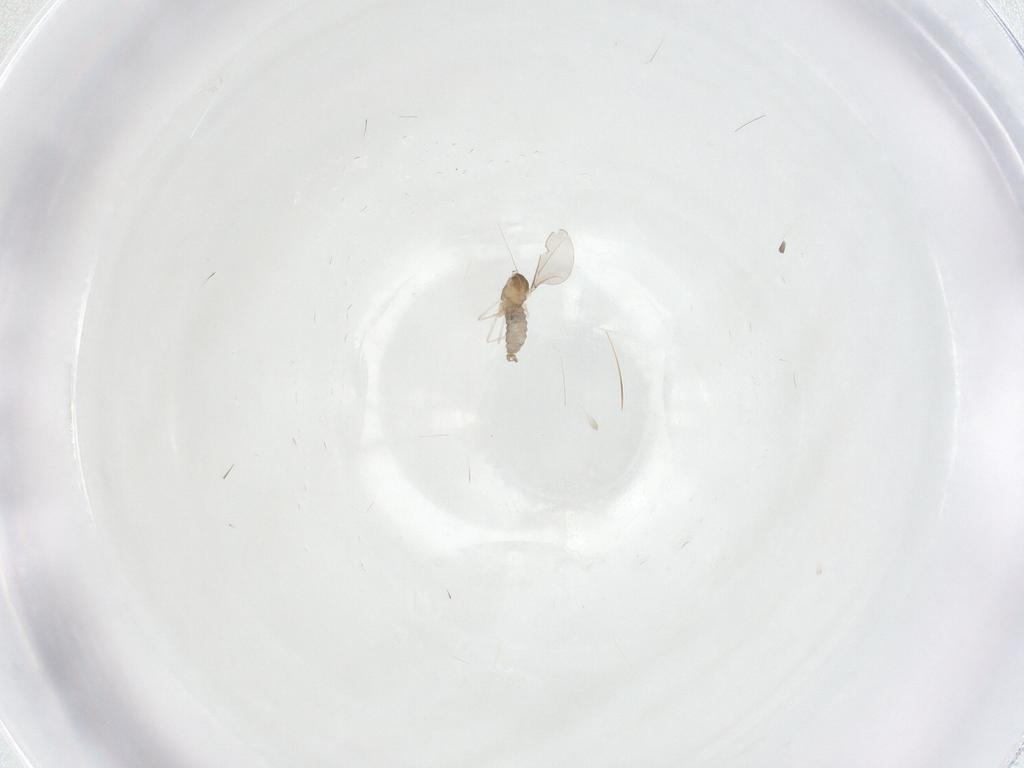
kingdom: Animalia
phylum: Arthropoda
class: Insecta
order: Diptera
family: Cecidomyiidae
